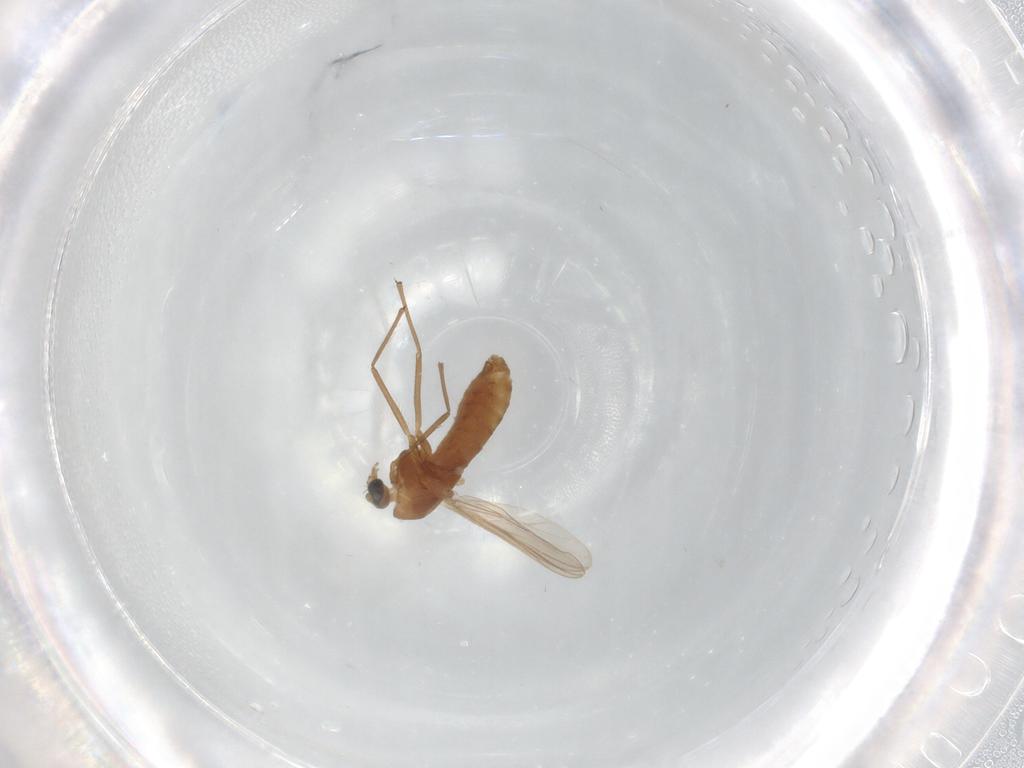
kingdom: Animalia
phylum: Arthropoda
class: Insecta
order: Diptera
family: Chironomidae
